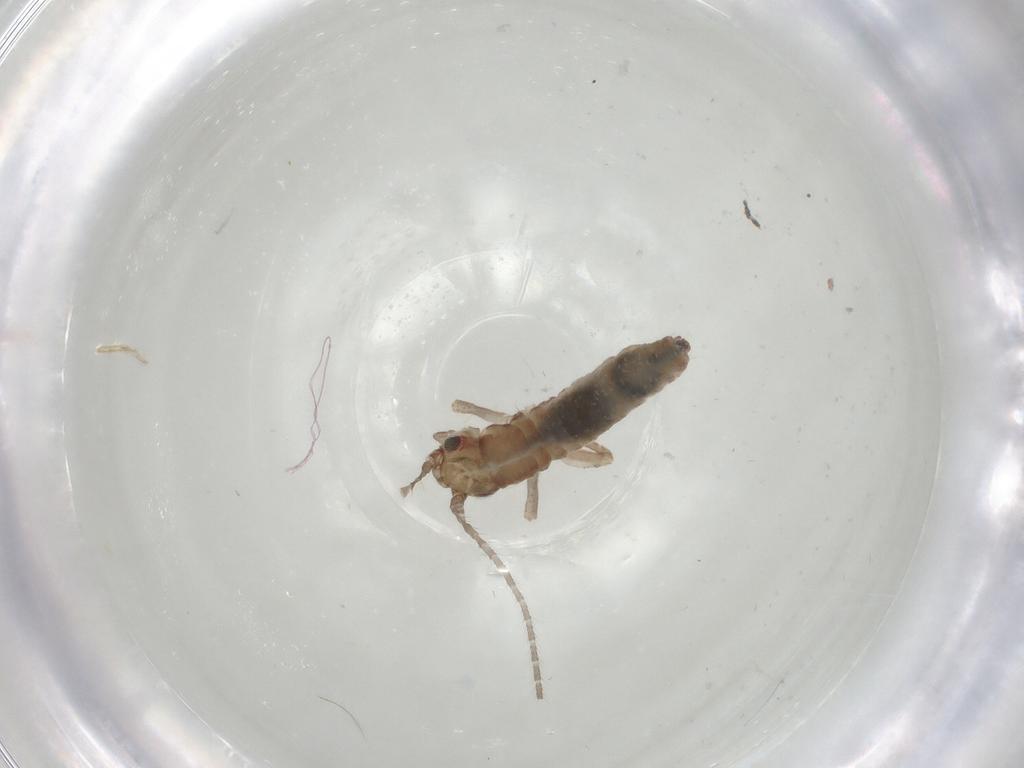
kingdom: Animalia
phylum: Arthropoda
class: Insecta
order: Orthoptera
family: Mogoplistidae
